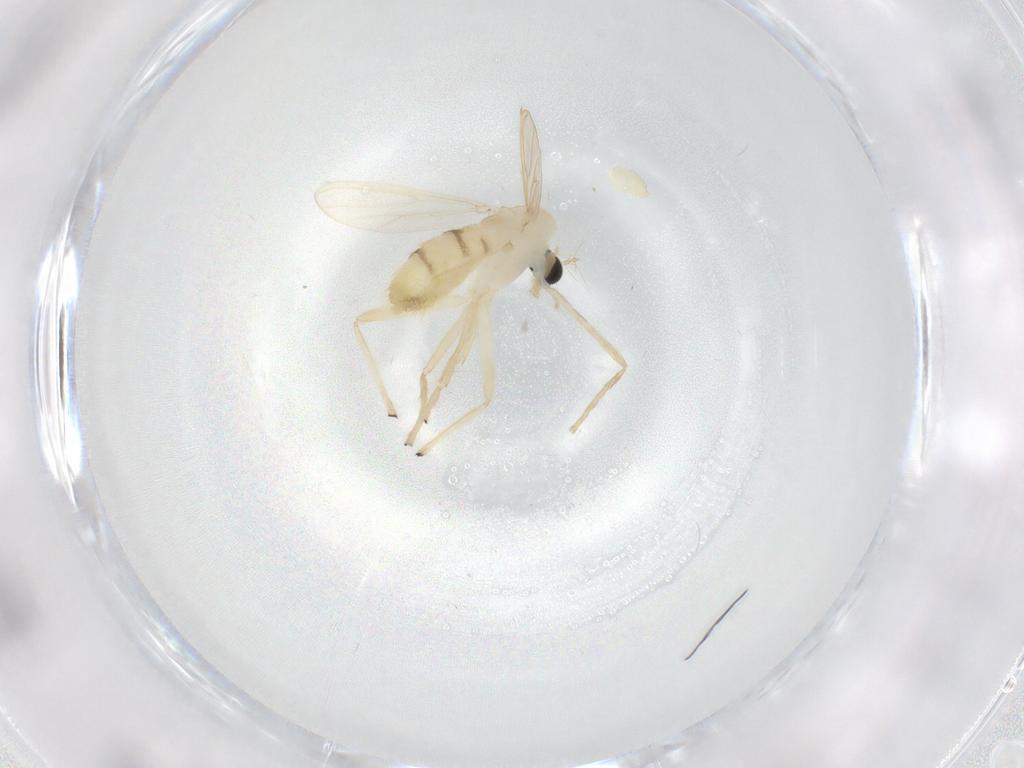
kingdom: Animalia
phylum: Arthropoda
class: Insecta
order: Diptera
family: Chironomidae
